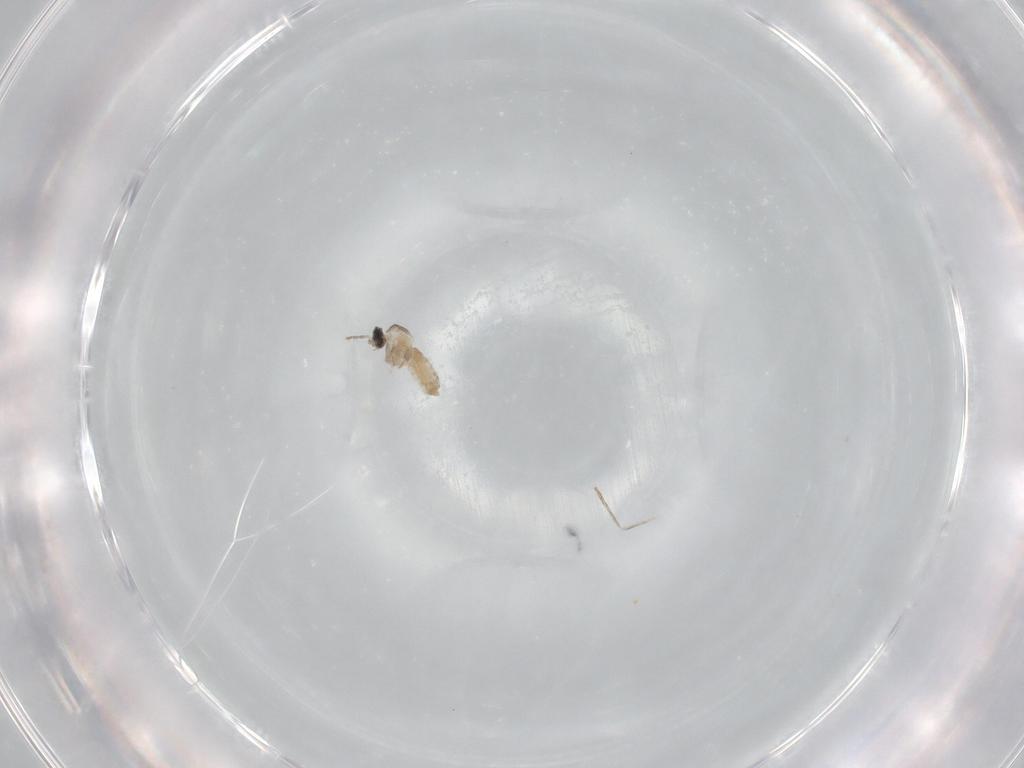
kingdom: Animalia
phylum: Arthropoda
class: Insecta
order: Diptera
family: Cecidomyiidae
